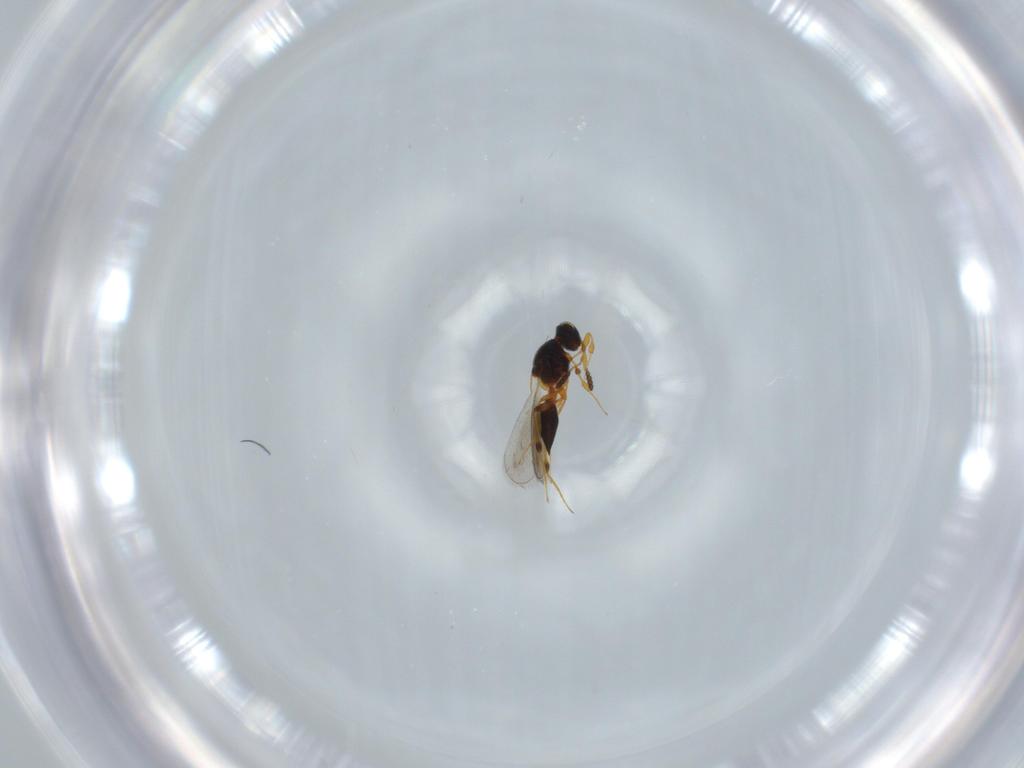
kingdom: Animalia
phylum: Arthropoda
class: Insecta
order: Hymenoptera
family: Platygastridae
